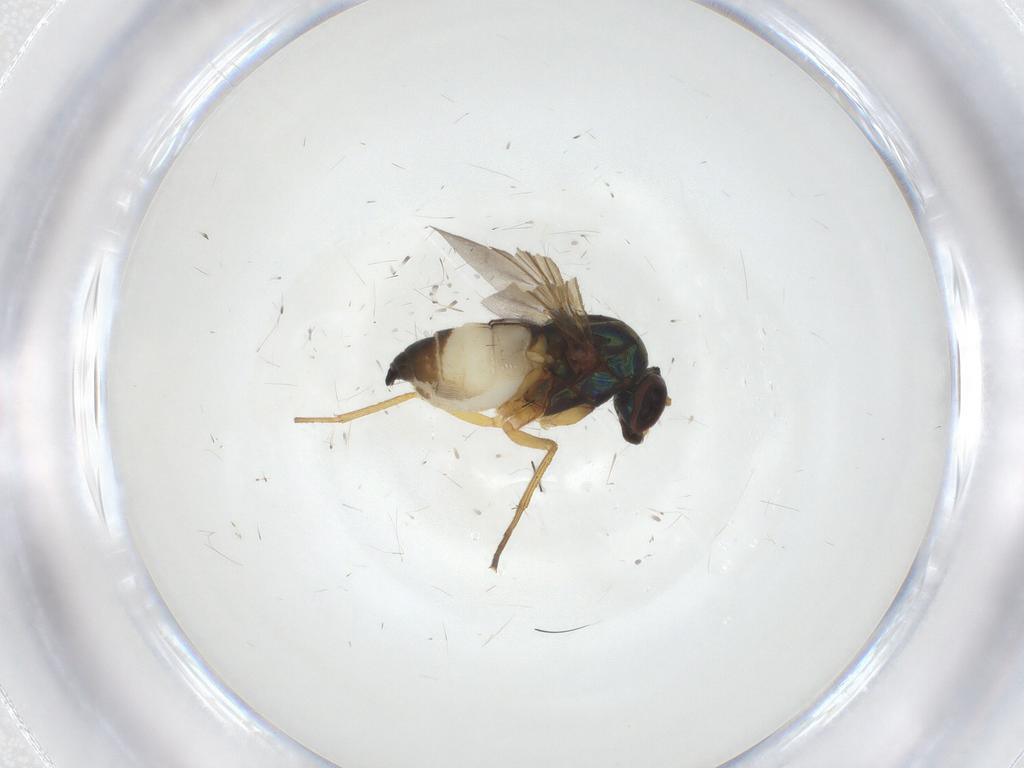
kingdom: Animalia
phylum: Arthropoda
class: Insecta
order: Diptera
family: Dolichopodidae
